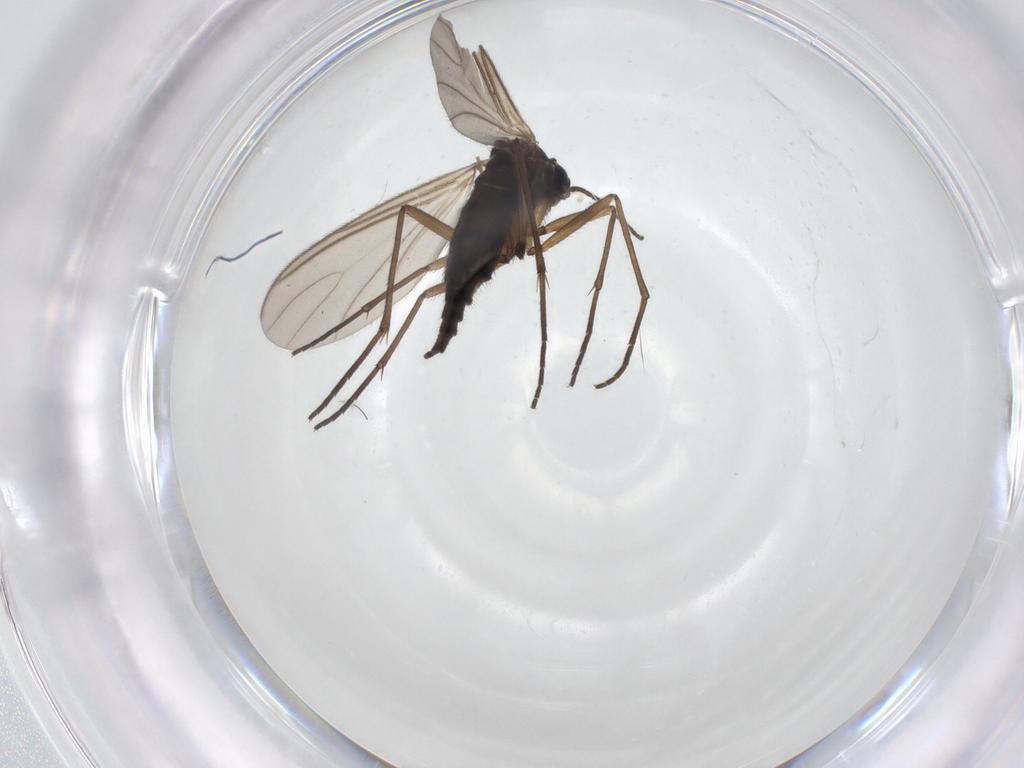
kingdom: Animalia
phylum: Arthropoda
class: Insecta
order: Diptera
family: Sciaridae
